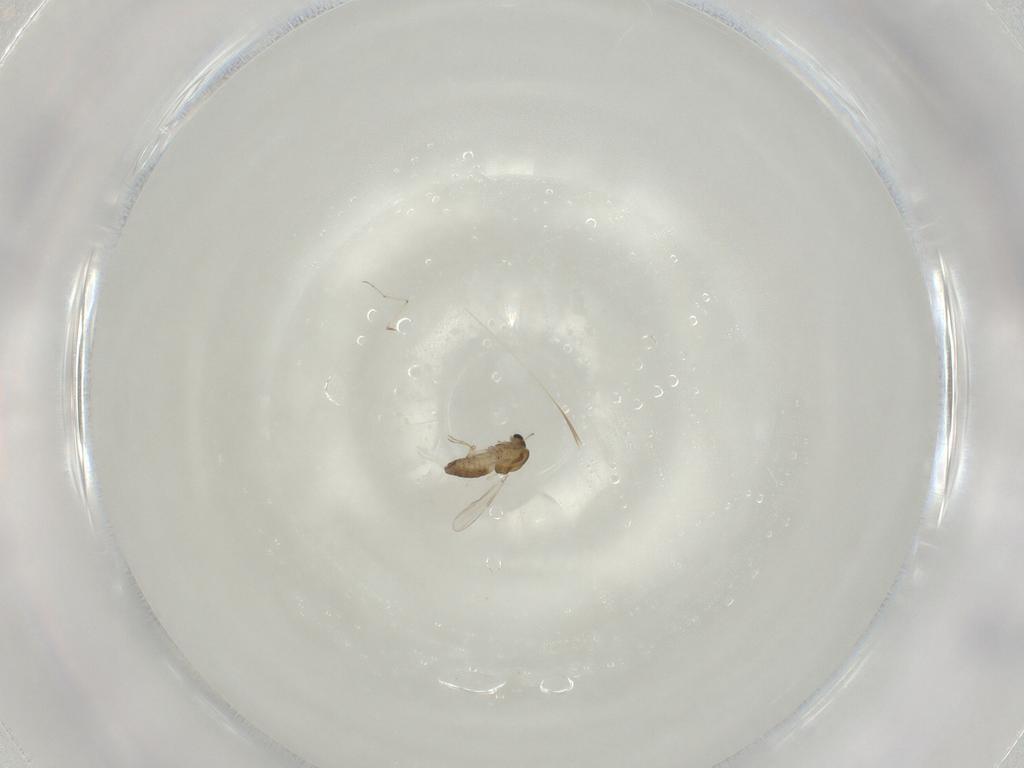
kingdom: Animalia
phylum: Arthropoda
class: Insecta
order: Diptera
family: Chironomidae
